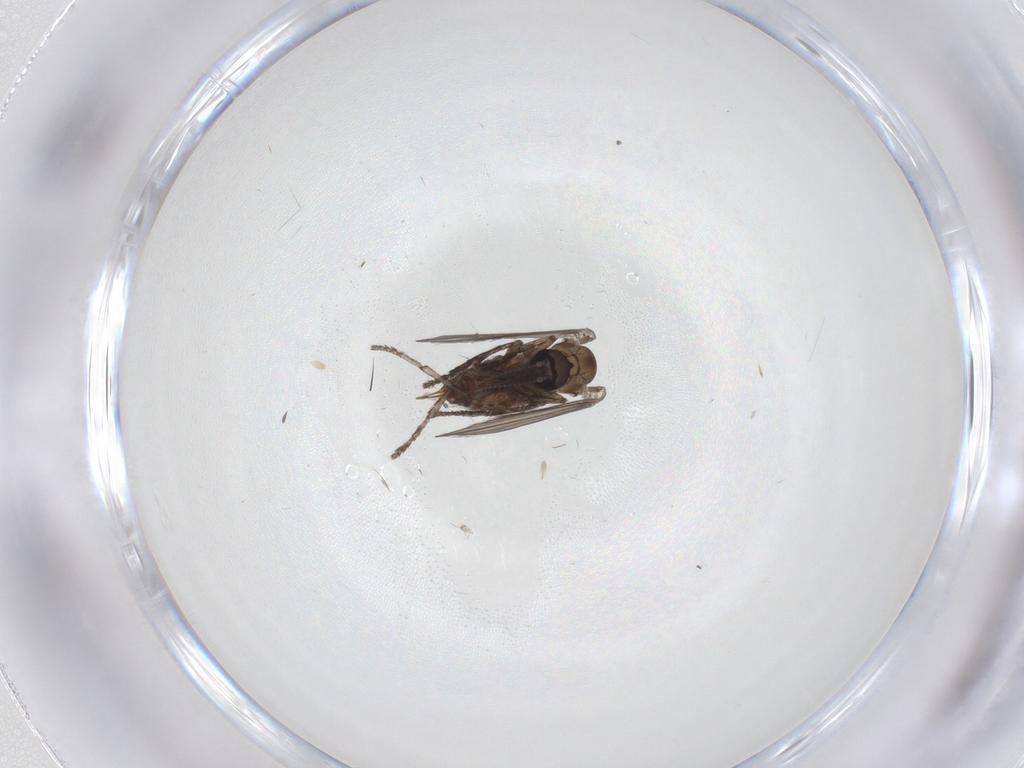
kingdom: Animalia
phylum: Arthropoda
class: Insecta
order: Diptera
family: Psychodidae
